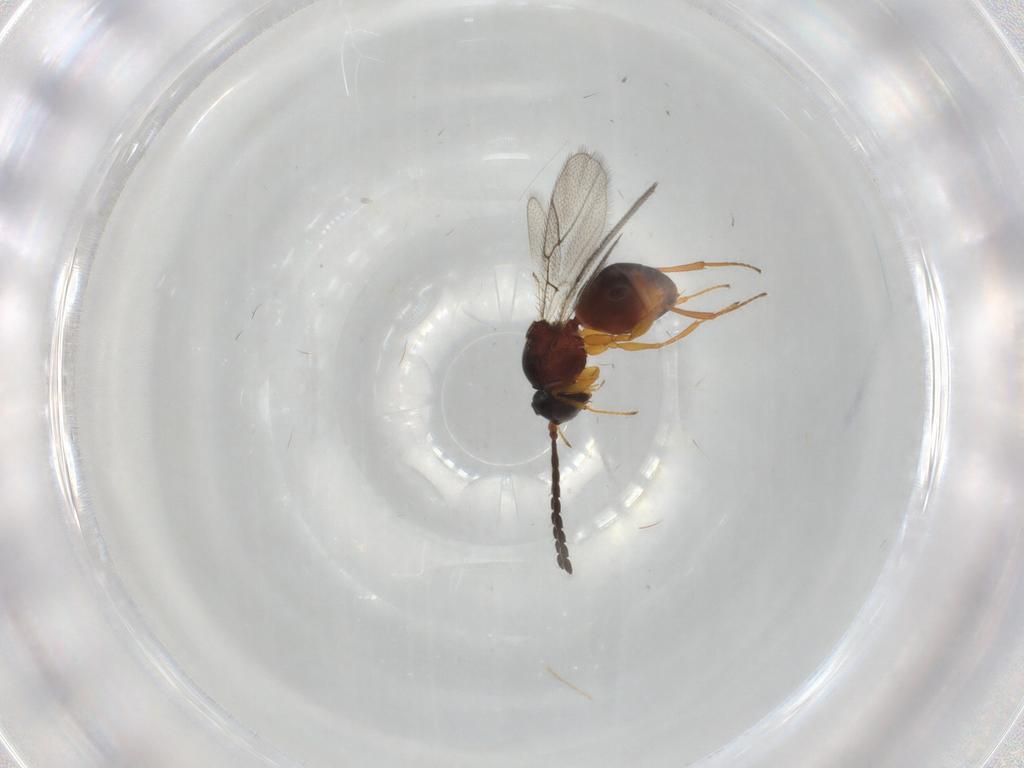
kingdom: Animalia
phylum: Arthropoda
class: Insecta
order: Hymenoptera
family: Figitidae
